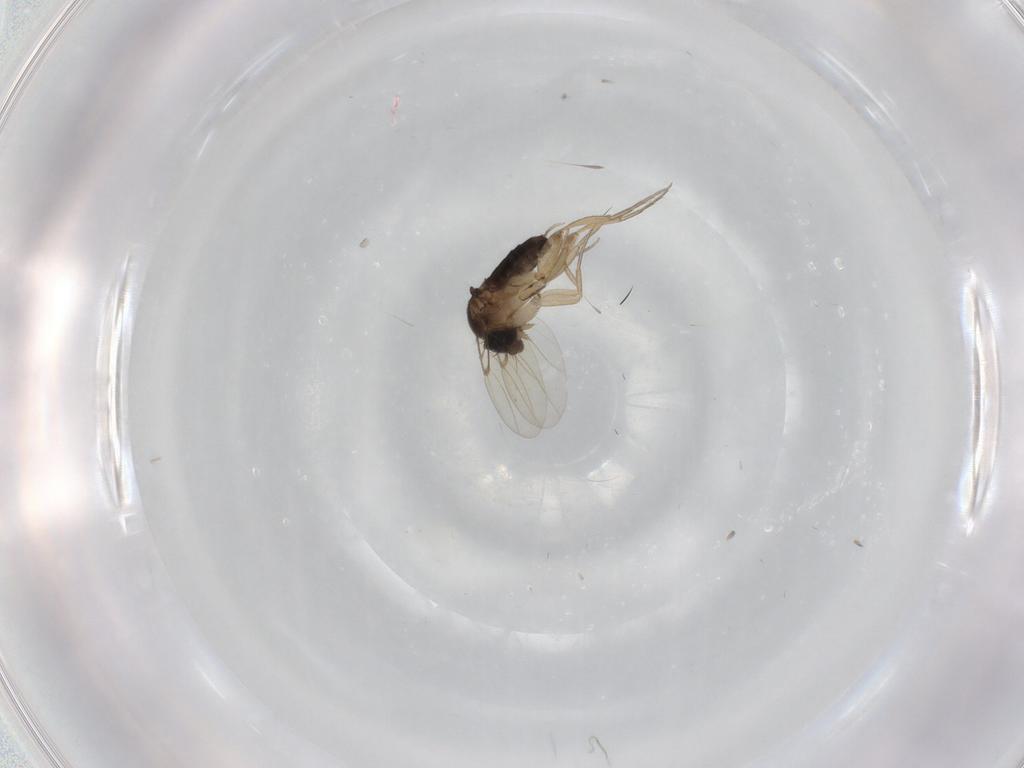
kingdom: Animalia
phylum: Arthropoda
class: Insecta
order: Diptera
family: Phoridae
